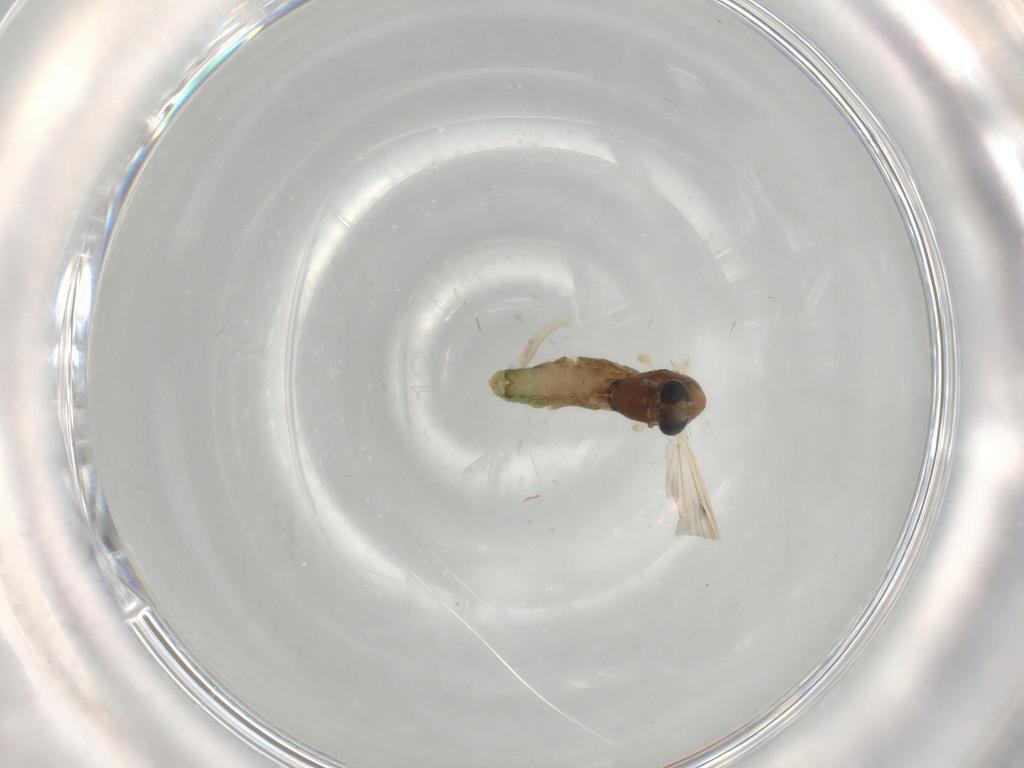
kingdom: Animalia
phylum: Arthropoda
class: Insecta
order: Diptera
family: Chironomidae
